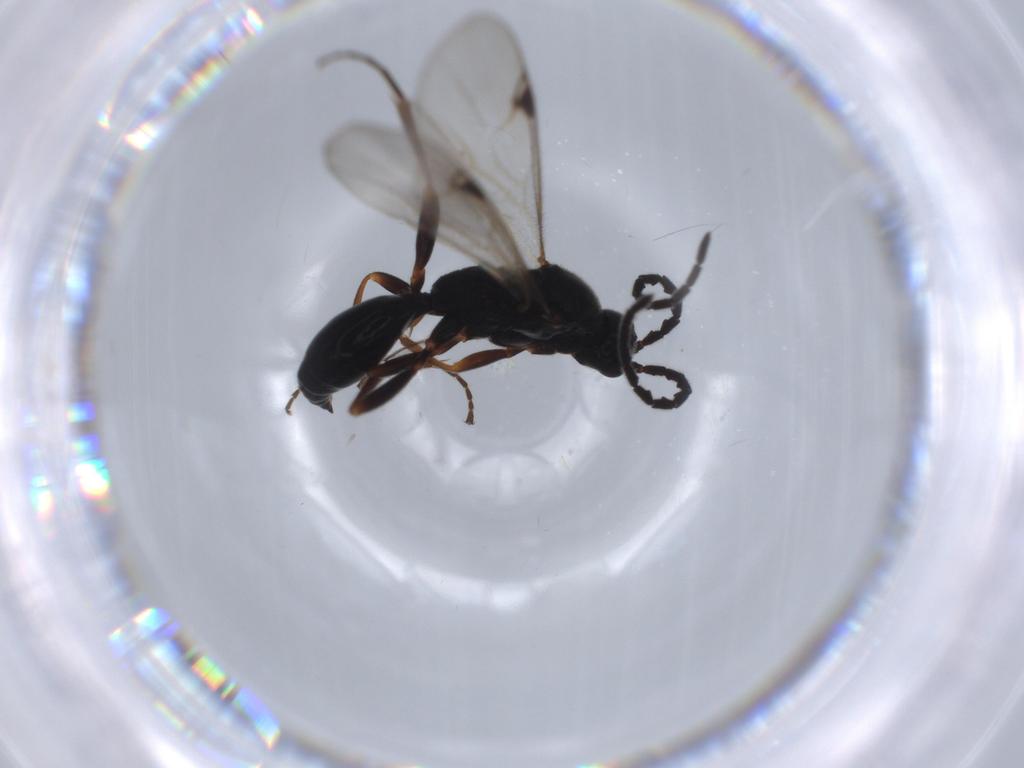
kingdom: Animalia
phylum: Arthropoda
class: Insecta
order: Hymenoptera
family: Proctotrupidae
